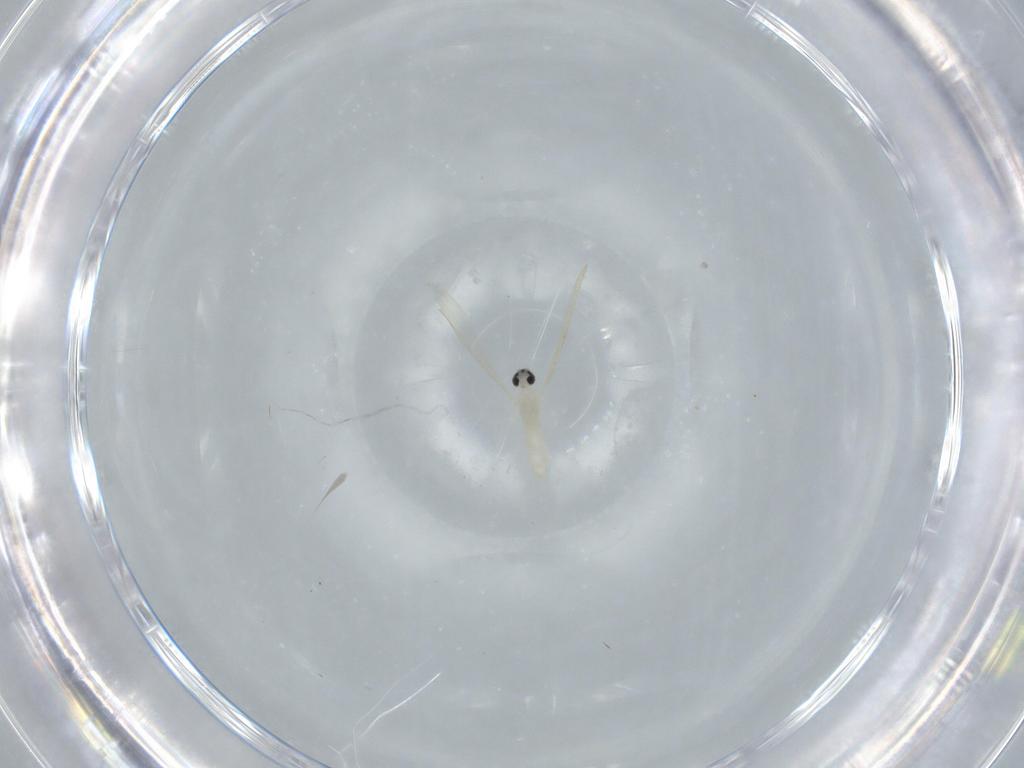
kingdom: Animalia
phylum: Arthropoda
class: Insecta
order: Diptera
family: Cecidomyiidae
